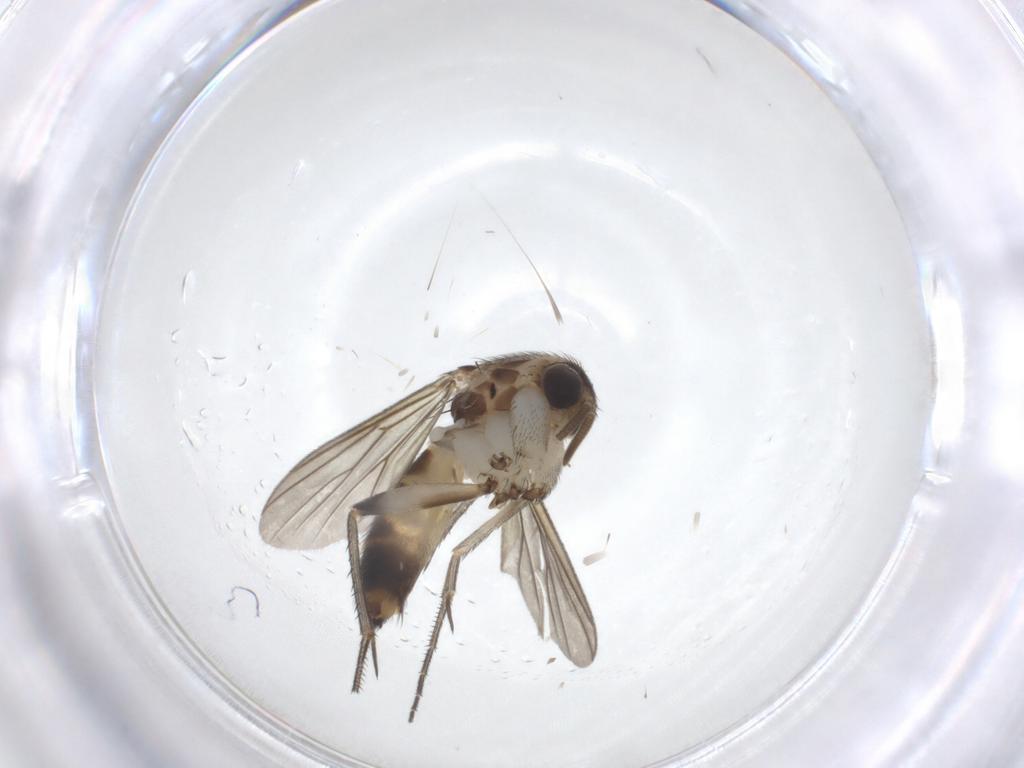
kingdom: Animalia
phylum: Arthropoda
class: Insecta
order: Diptera
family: Mycetophilidae
